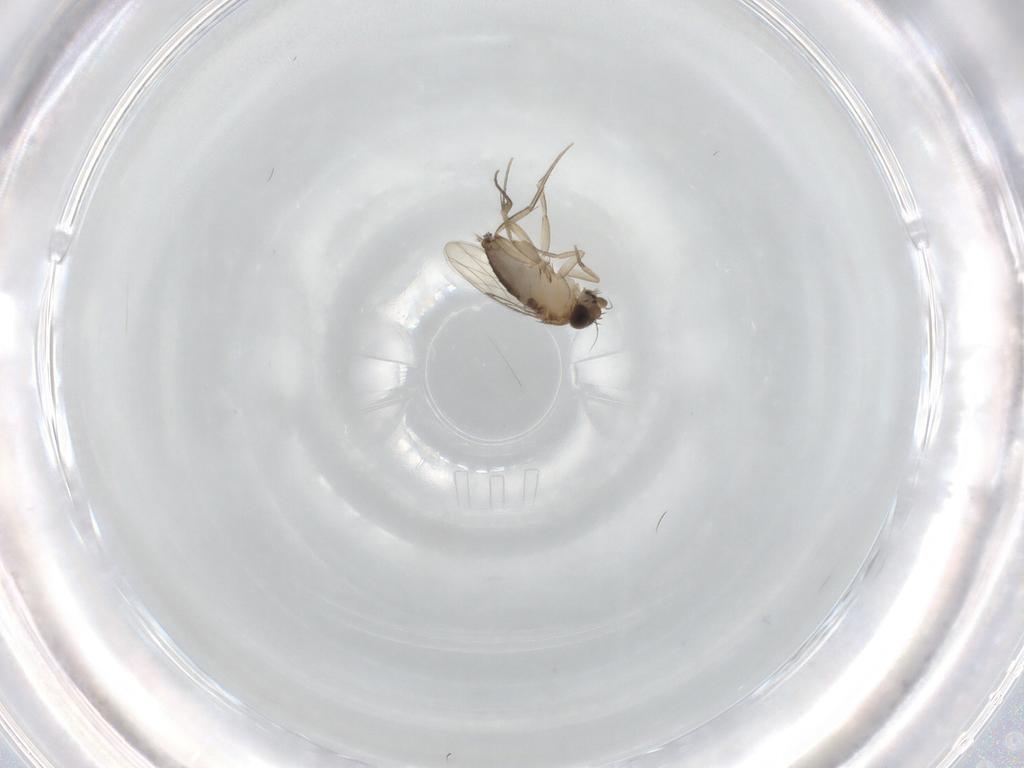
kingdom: Animalia
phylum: Arthropoda
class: Insecta
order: Diptera
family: Phoridae
